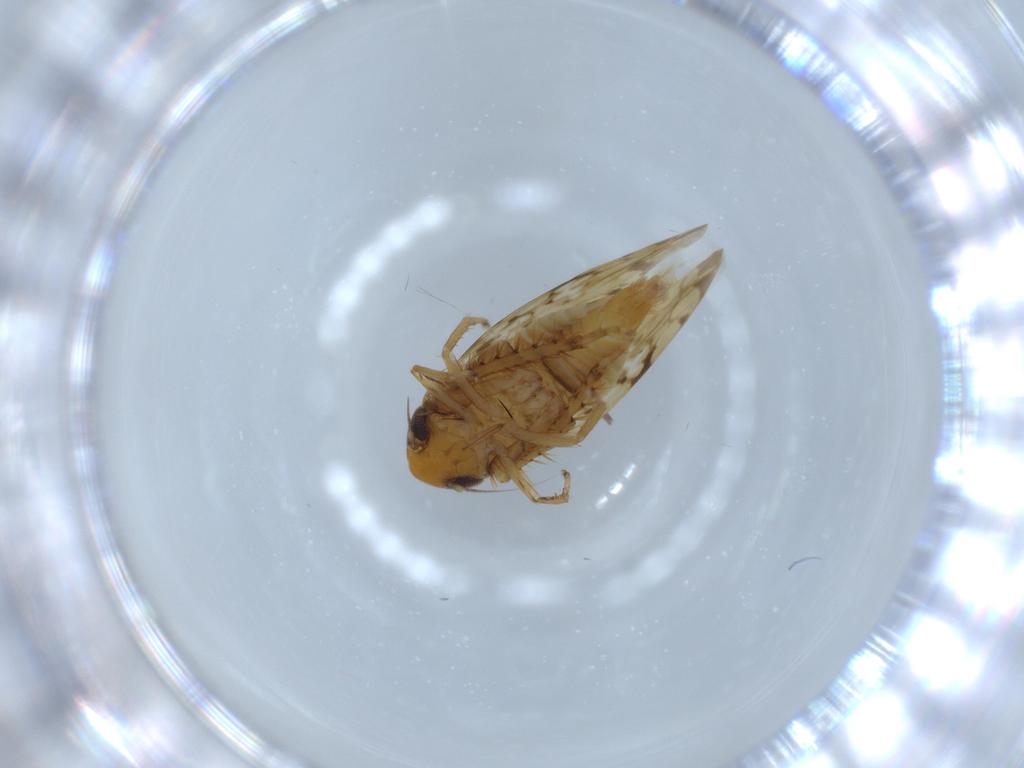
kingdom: Animalia
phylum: Arthropoda
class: Insecta
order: Hemiptera
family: Cicadellidae
